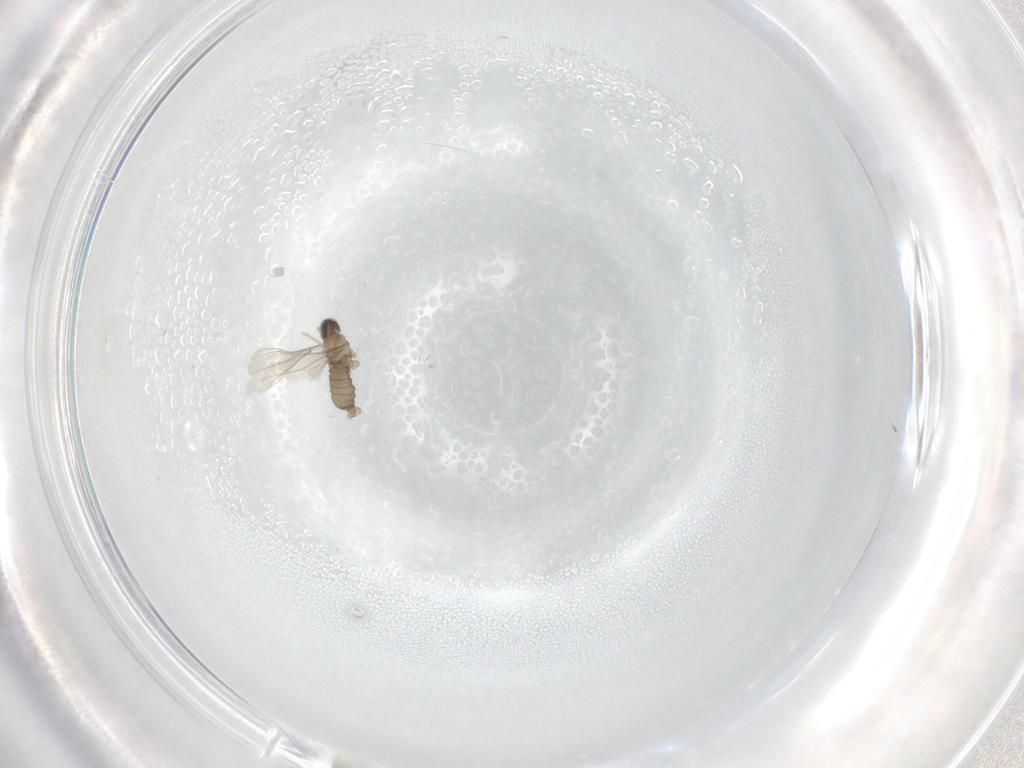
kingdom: Animalia
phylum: Arthropoda
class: Insecta
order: Diptera
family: Cecidomyiidae
